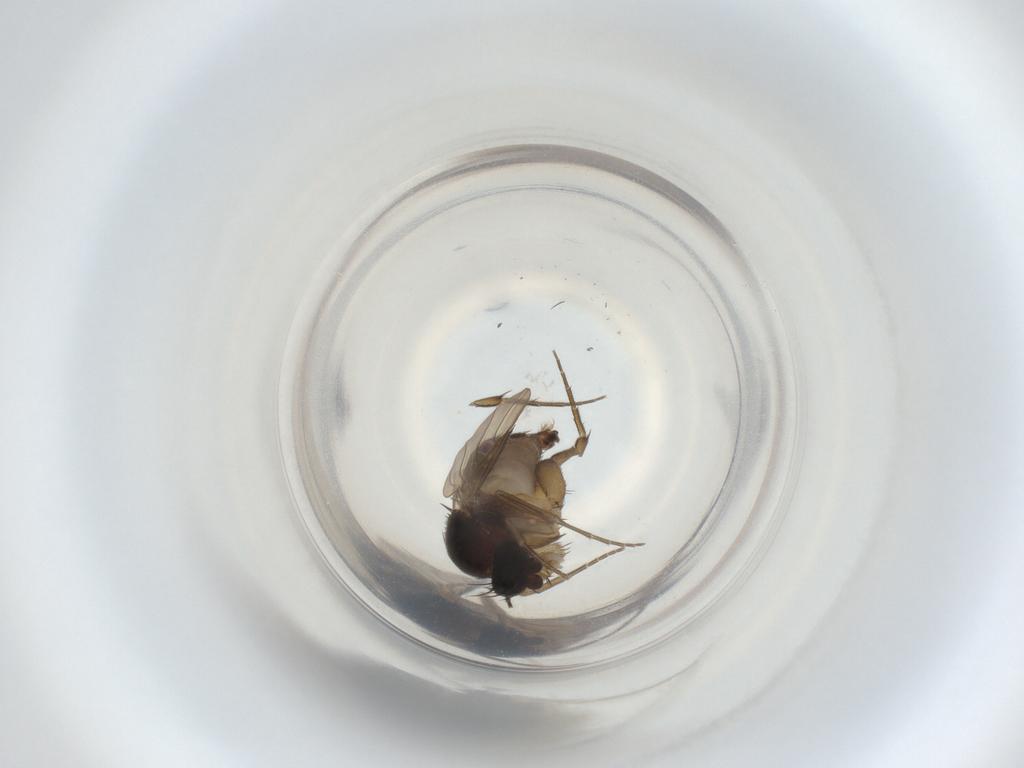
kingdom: Animalia
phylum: Arthropoda
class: Insecta
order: Diptera
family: Phoridae
